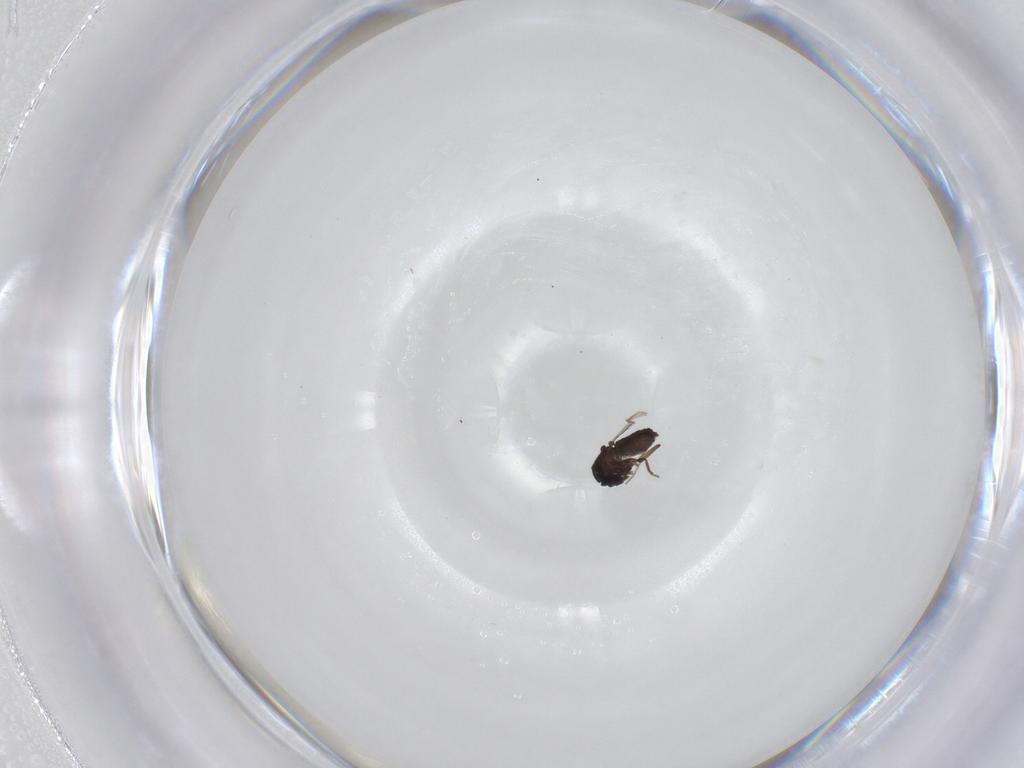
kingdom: Animalia
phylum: Arthropoda
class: Insecta
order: Diptera
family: Ceratopogonidae
